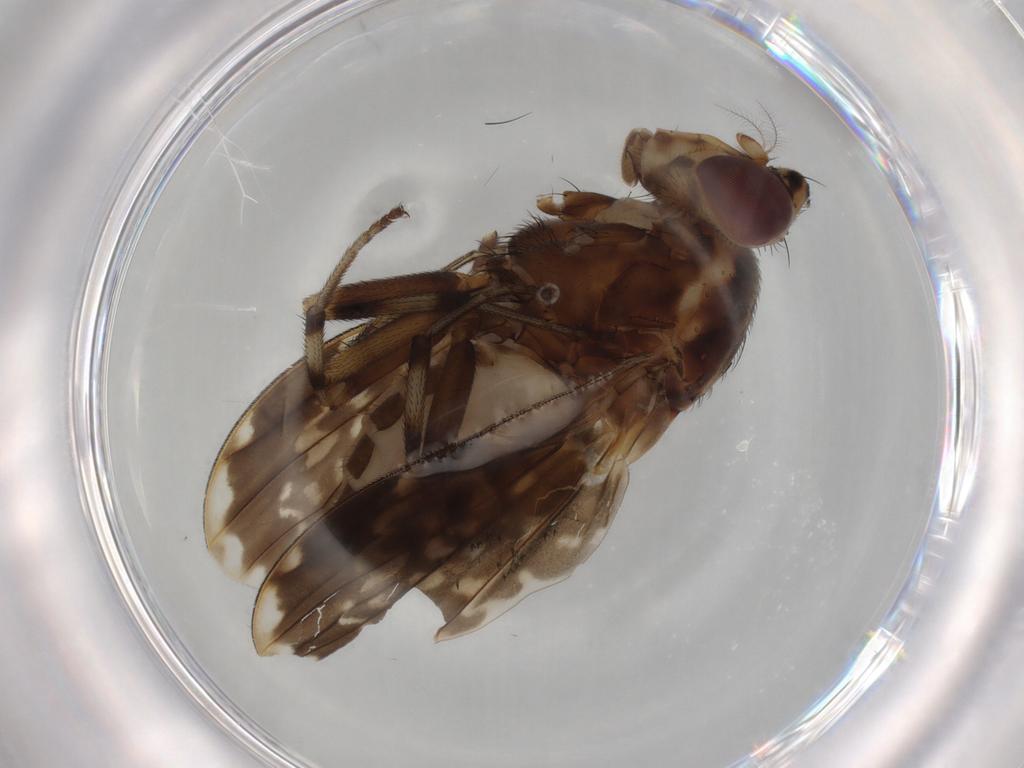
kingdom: Animalia
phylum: Arthropoda
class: Insecta
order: Diptera
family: Lauxaniidae
